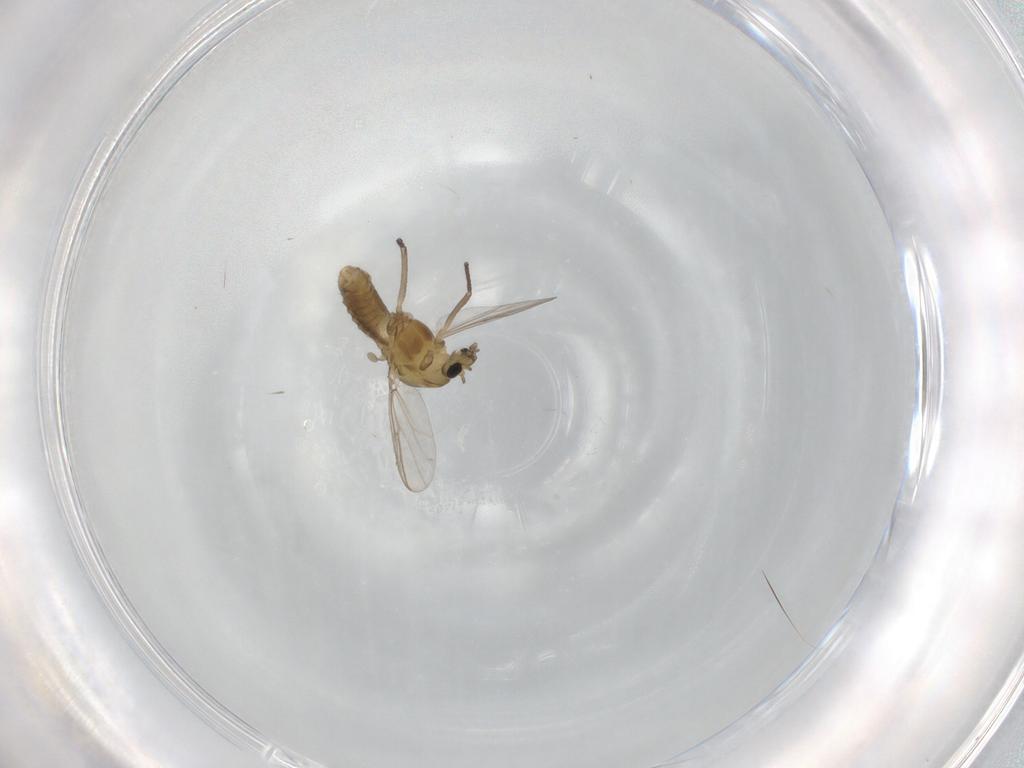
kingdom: Animalia
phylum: Arthropoda
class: Insecta
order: Diptera
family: Chironomidae
